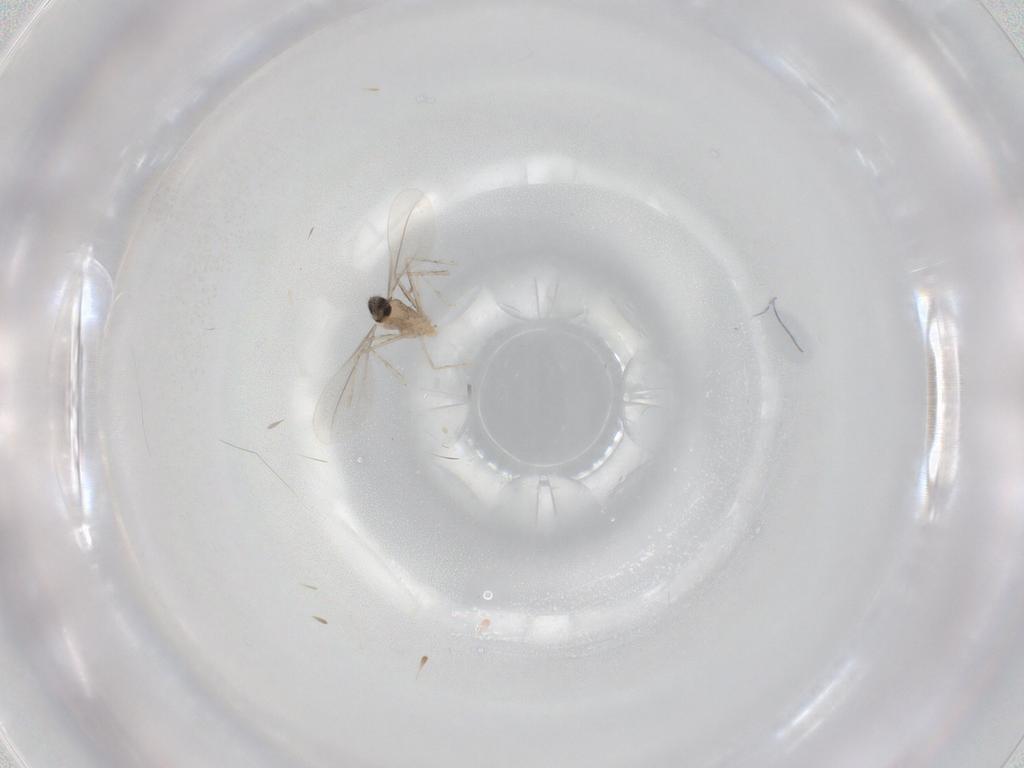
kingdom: Animalia
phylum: Arthropoda
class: Insecta
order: Diptera
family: Cecidomyiidae
